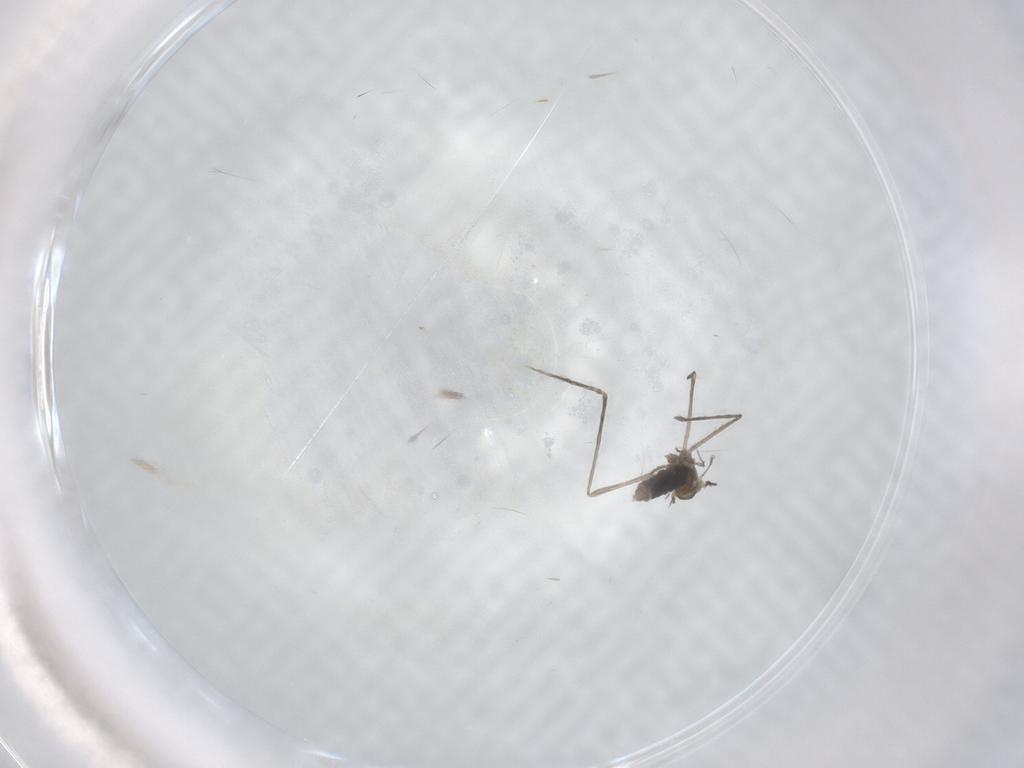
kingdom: Animalia
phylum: Arthropoda
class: Insecta
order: Diptera
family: Cecidomyiidae
